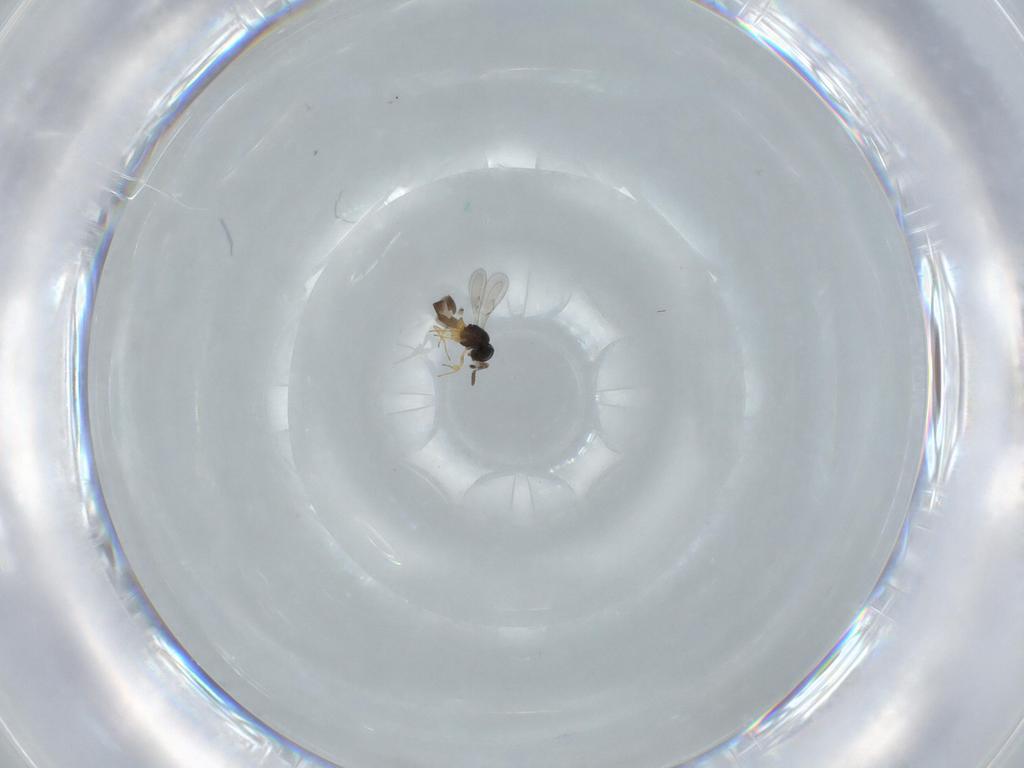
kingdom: Animalia
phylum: Arthropoda
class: Insecta
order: Hymenoptera
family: Scelionidae
